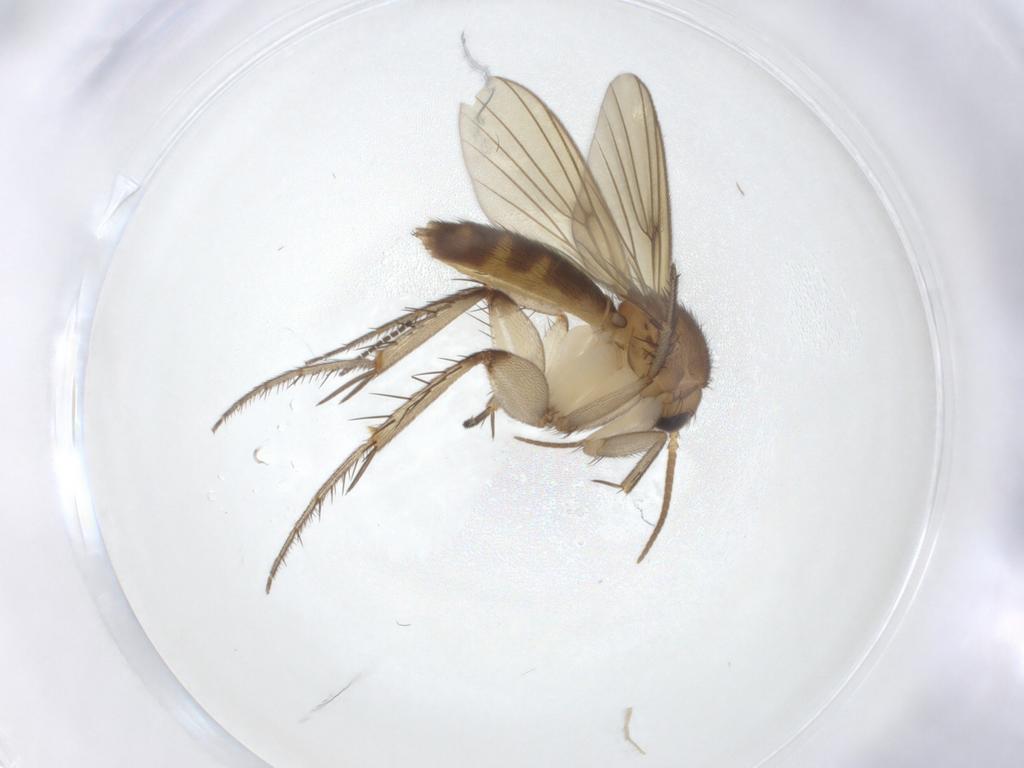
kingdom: Animalia
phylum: Arthropoda
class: Insecta
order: Diptera
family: Mycetophilidae
